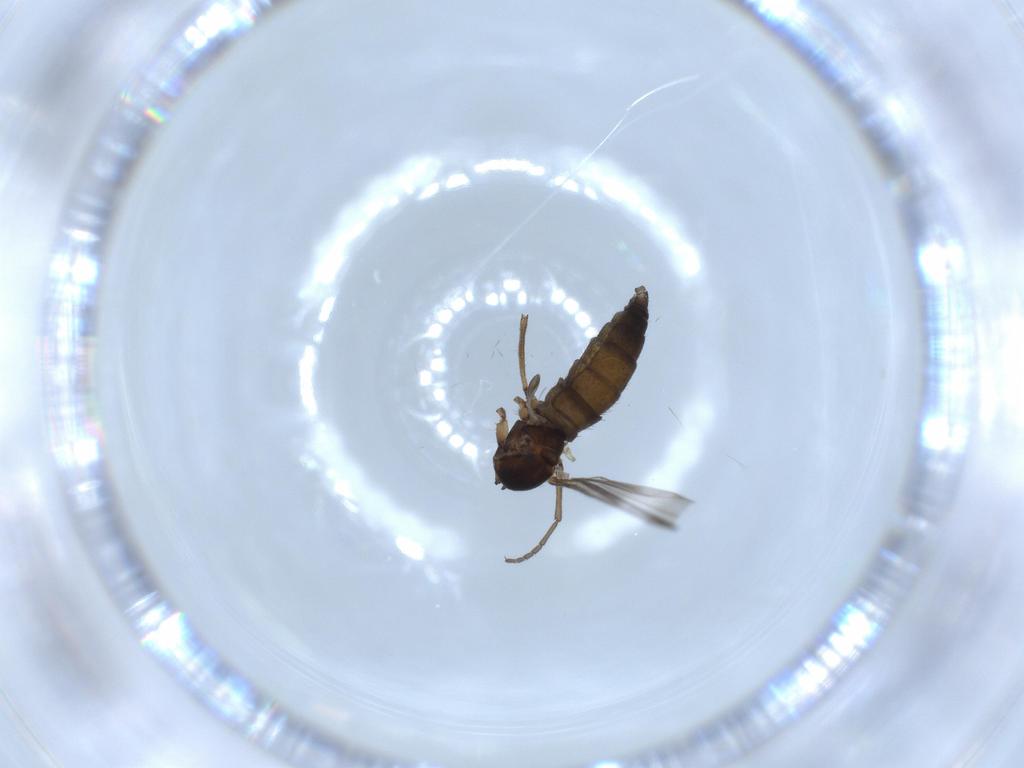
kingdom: Animalia
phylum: Arthropoda
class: Insecta
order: Diptera
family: Sciaridae
